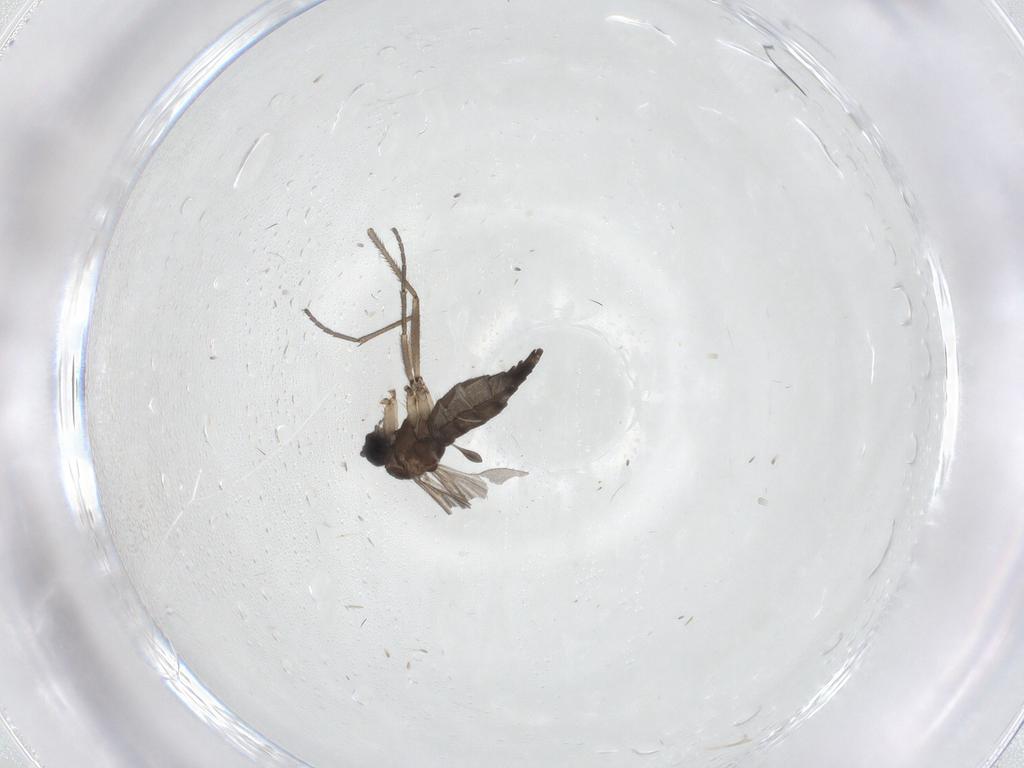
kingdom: Animalia
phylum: Arthropoda
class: Insecta
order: Diptera
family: Sciaridae
